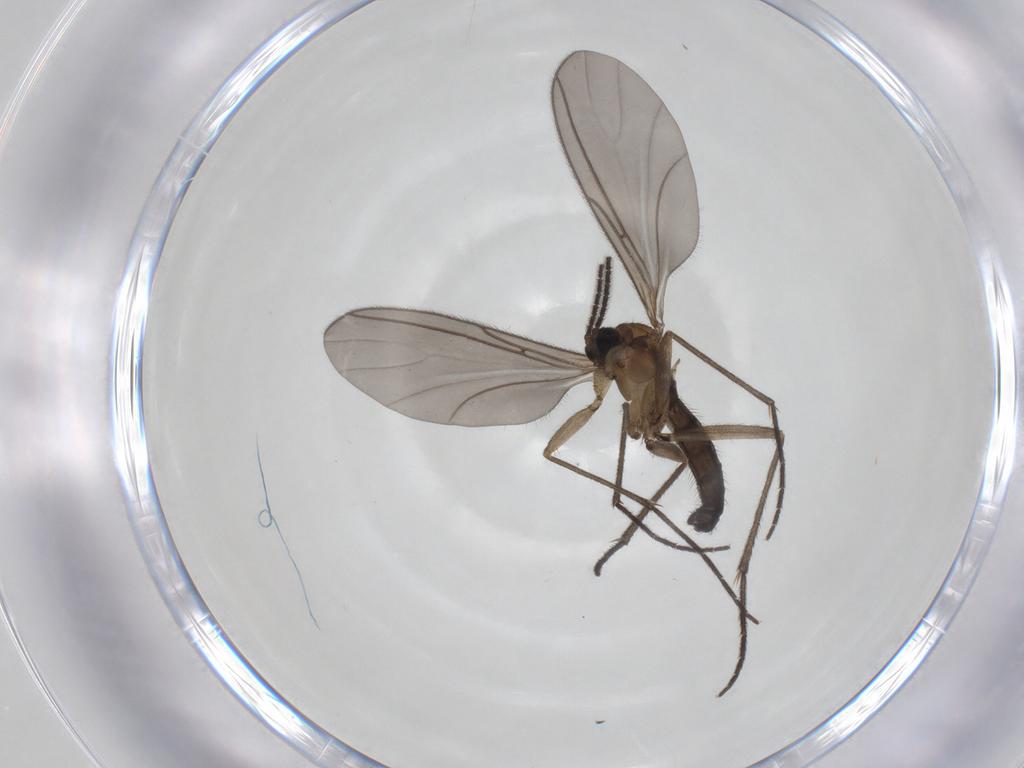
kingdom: Animalia
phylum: Arthropoda
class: Insecta
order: Diptera
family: Chironomidae
